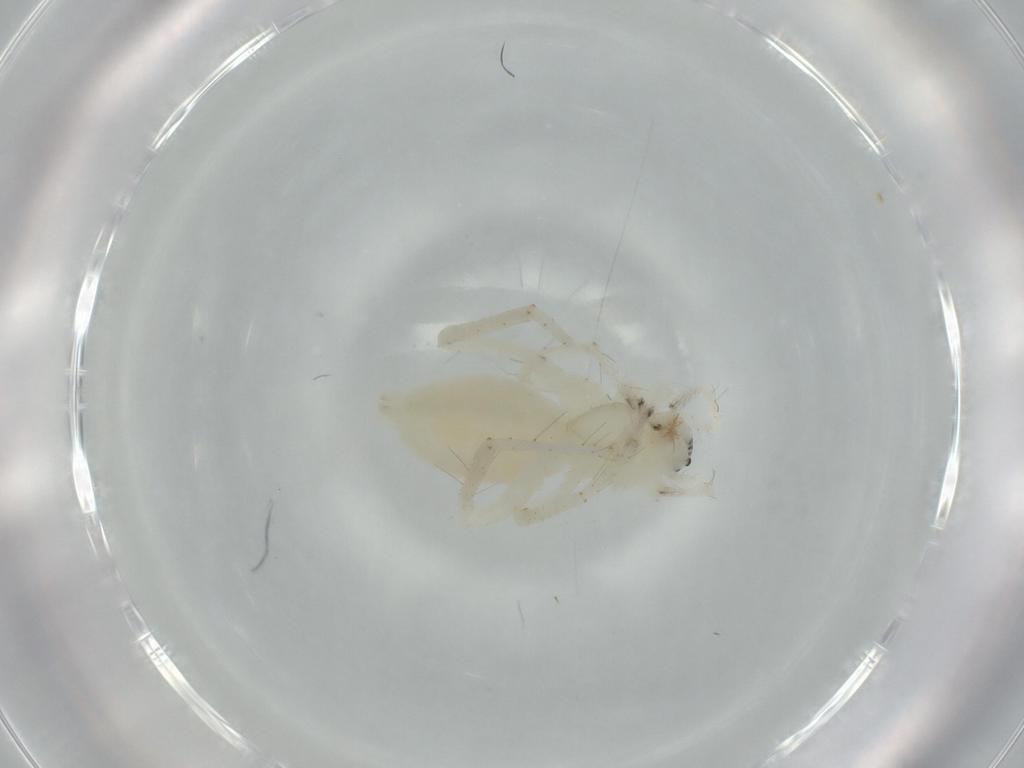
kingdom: Animalia
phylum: Arthropoda
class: Arachnida
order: Araneae
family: Anyphaenidae
